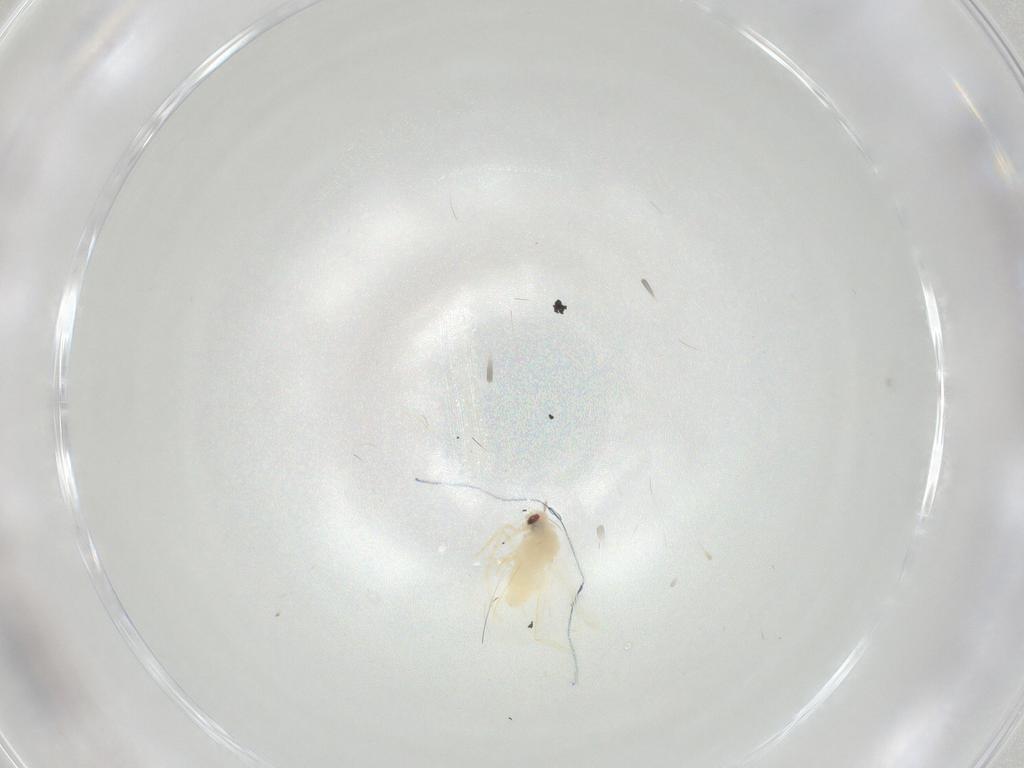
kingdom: Animalia
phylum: Arthropoda
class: Insecta
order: Hemiptera
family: Aleyrodidae
